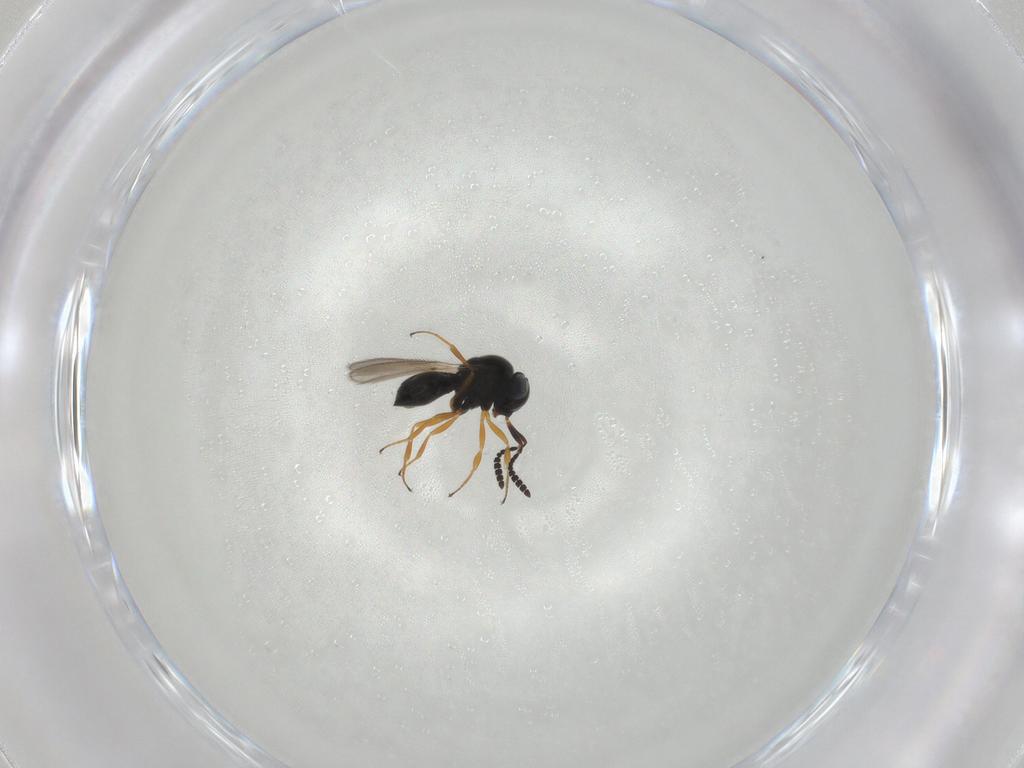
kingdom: Animalia
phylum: Arthropoda
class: Insecta
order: Hymenoptera
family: Scelionidae
